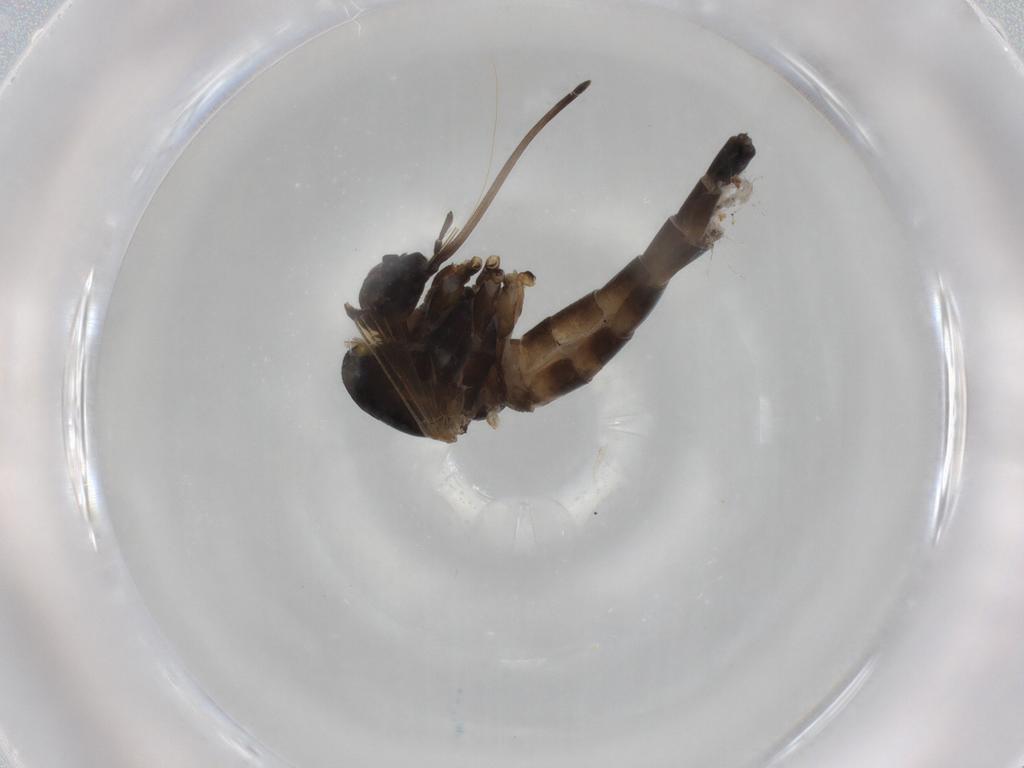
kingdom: Animalia
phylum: Arthropoda
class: Insecta
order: Diptera
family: Culicidae
